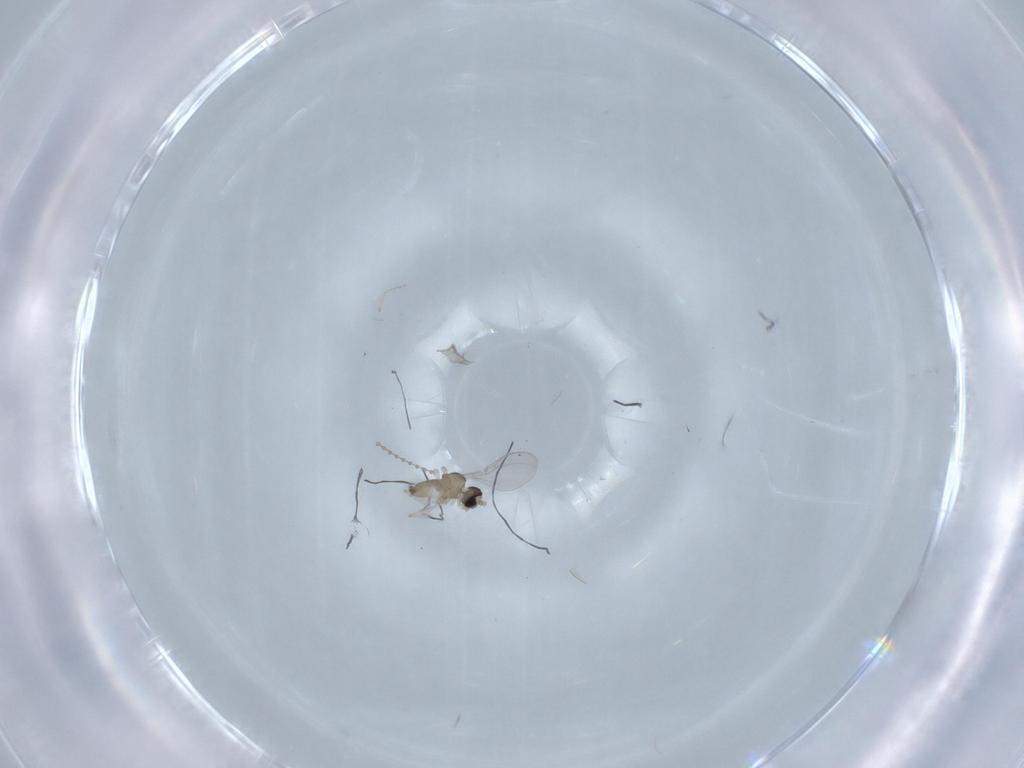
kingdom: Animalia
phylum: Arthropoda
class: Insecta
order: Diptera
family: Cecidomyiidae
